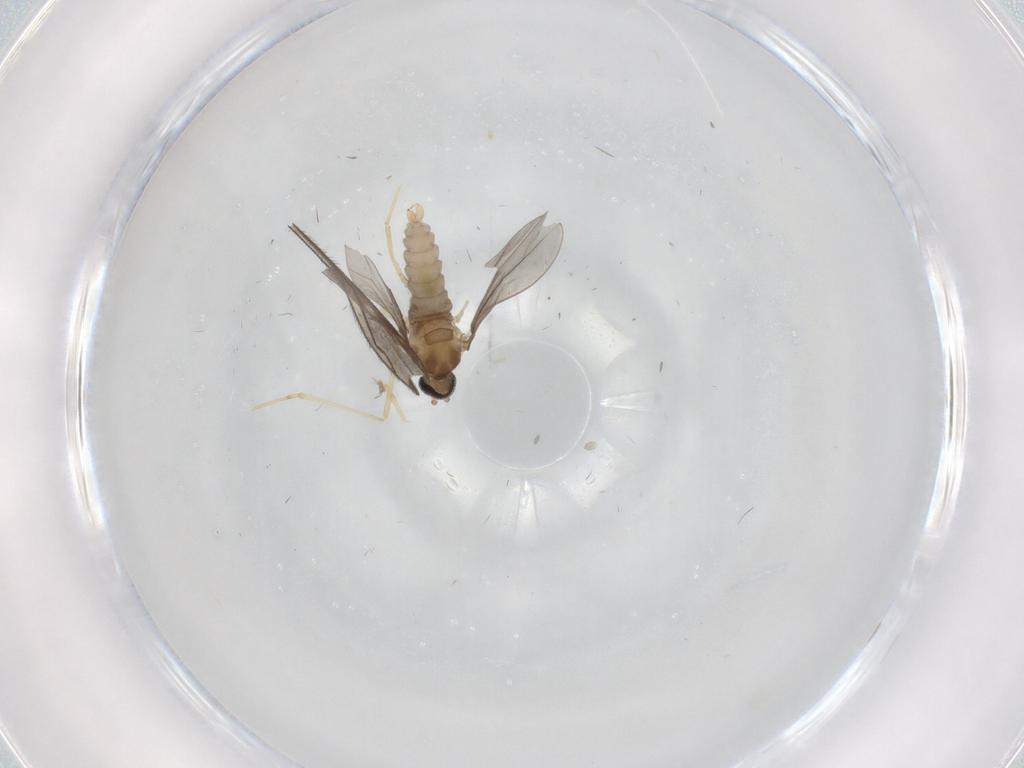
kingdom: Animalia
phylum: Arthropoda
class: Insecta
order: Diptera
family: Cecidomyiidae
